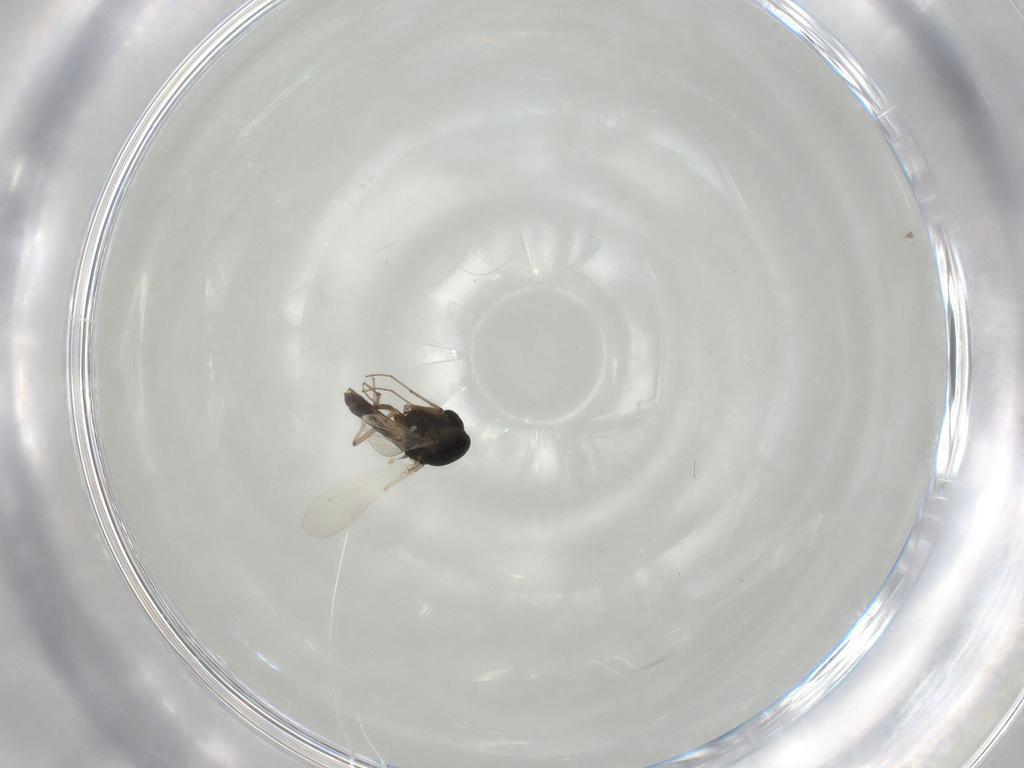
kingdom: Animalia
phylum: Arthropoda
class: Insecta
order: Diptera
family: Chironomidae
